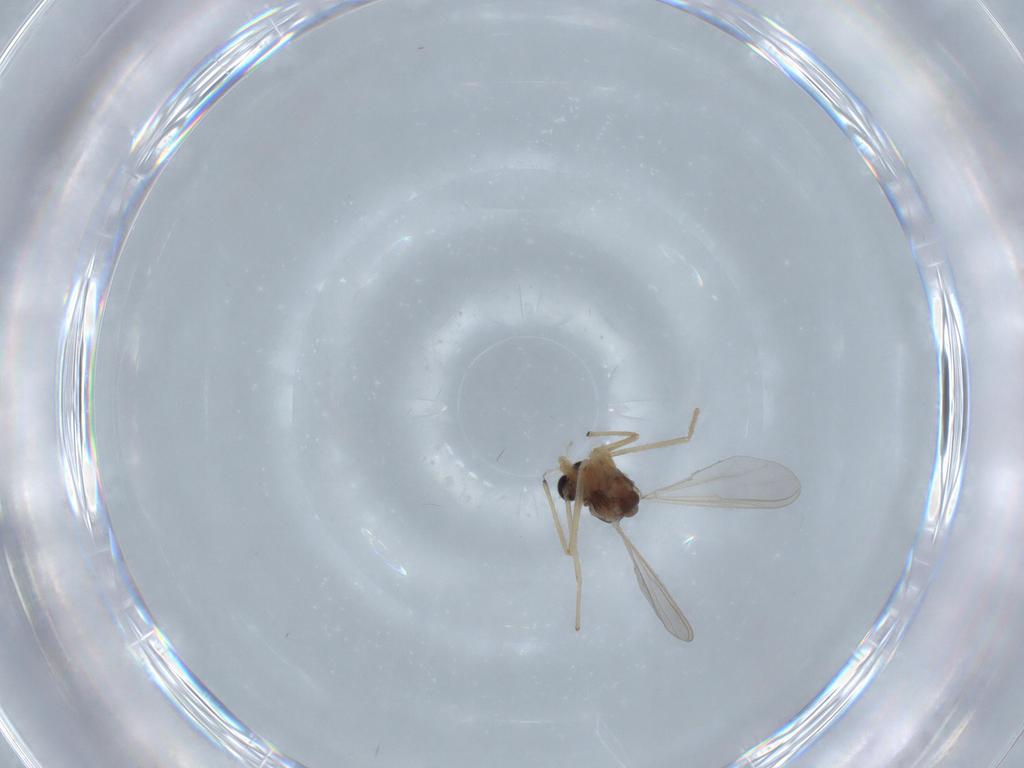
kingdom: Animalia
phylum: Arthropoda
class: Insecta
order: Diptera
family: Chironomidae
